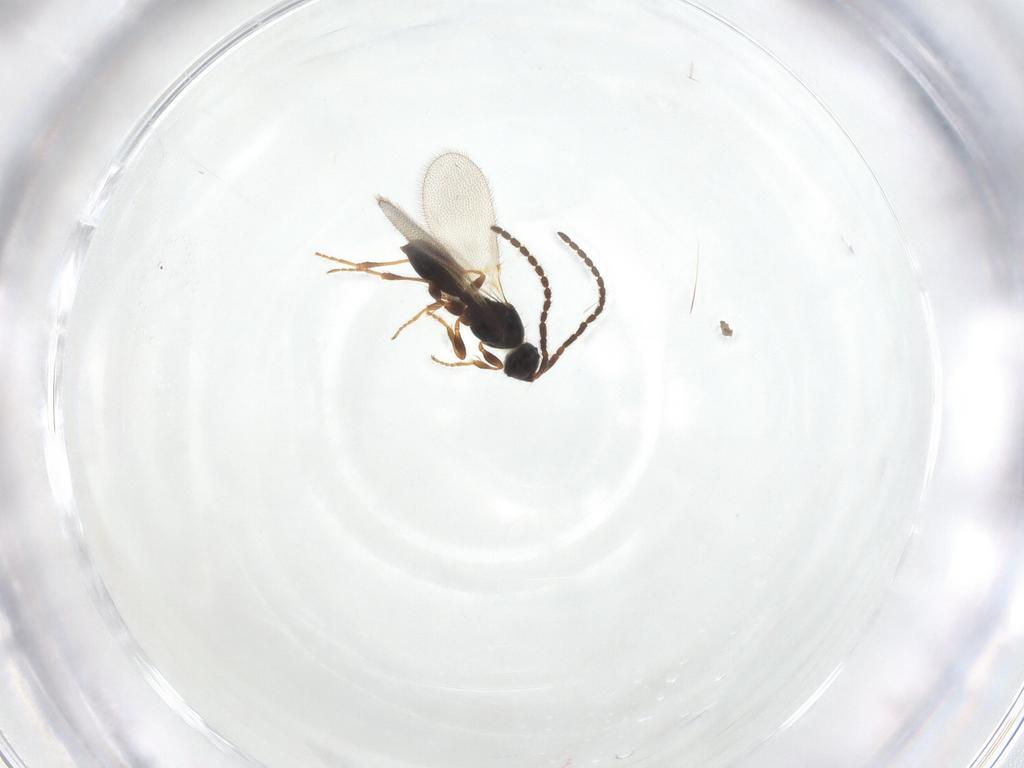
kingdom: Animalia
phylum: Arthropoda
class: Insecta
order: Hymenoptera
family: Diapriidae
